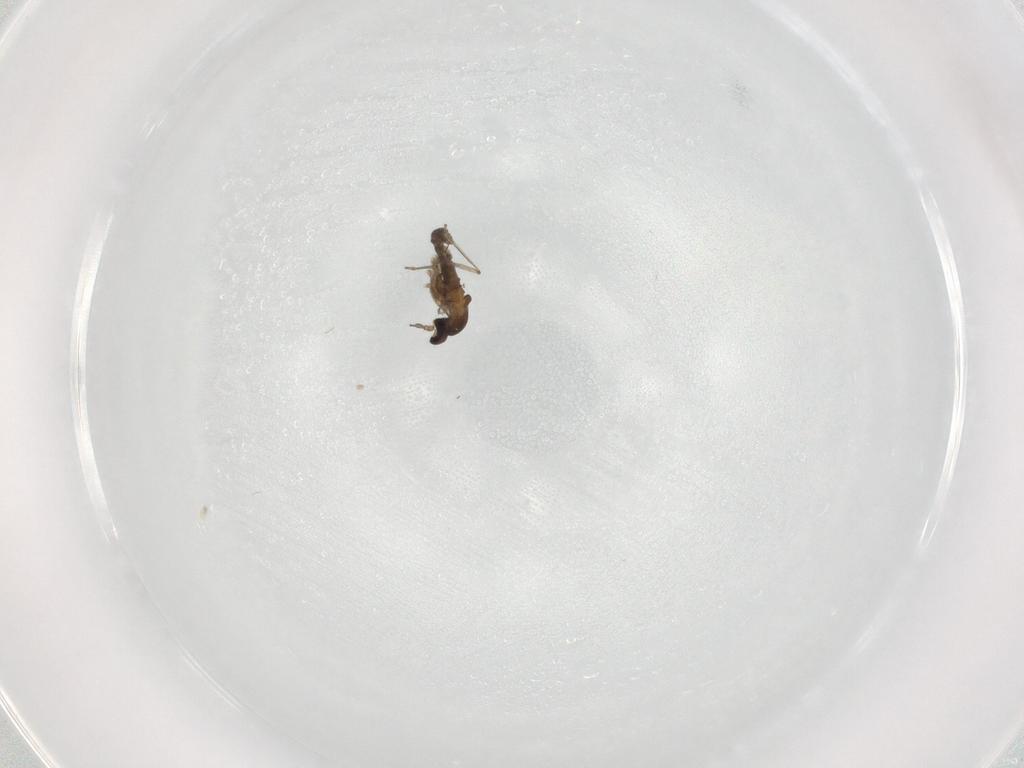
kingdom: Animalia
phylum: Arthropoda
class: Insecta
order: Diptera
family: Cecidomyiidae
